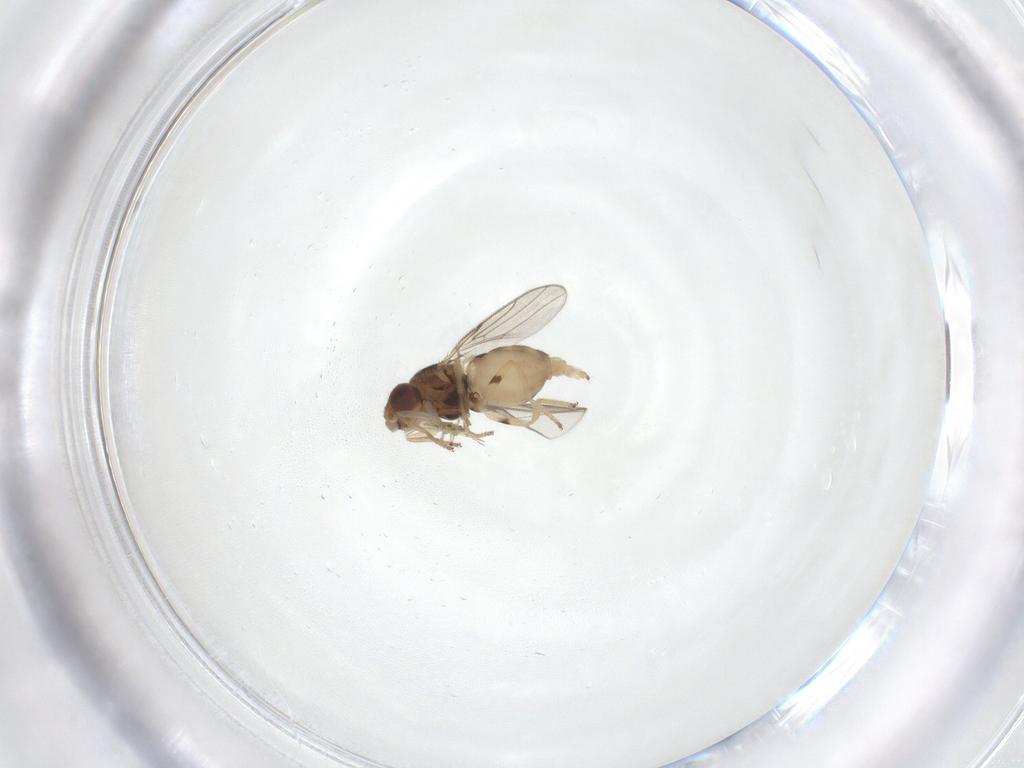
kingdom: Animalia
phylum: Arthropoda
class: Insecta
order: Diptera
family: Chloropidae
